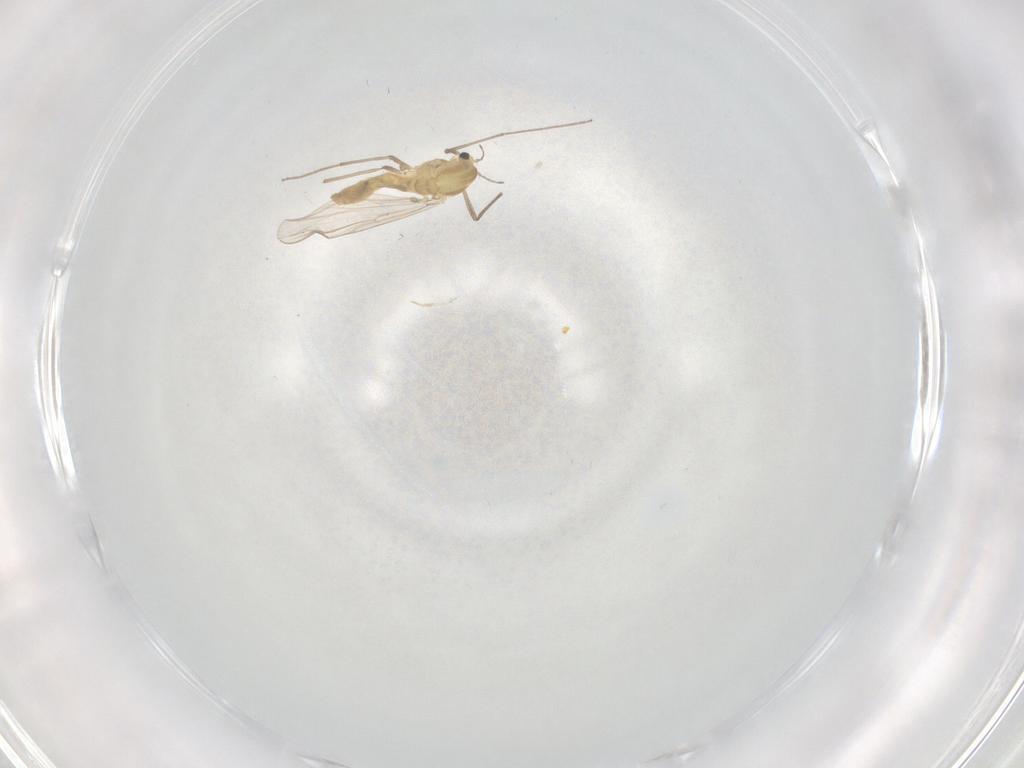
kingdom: Animalia
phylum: Arthropoda
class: Insecta
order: Diptera
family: Chironomidae
